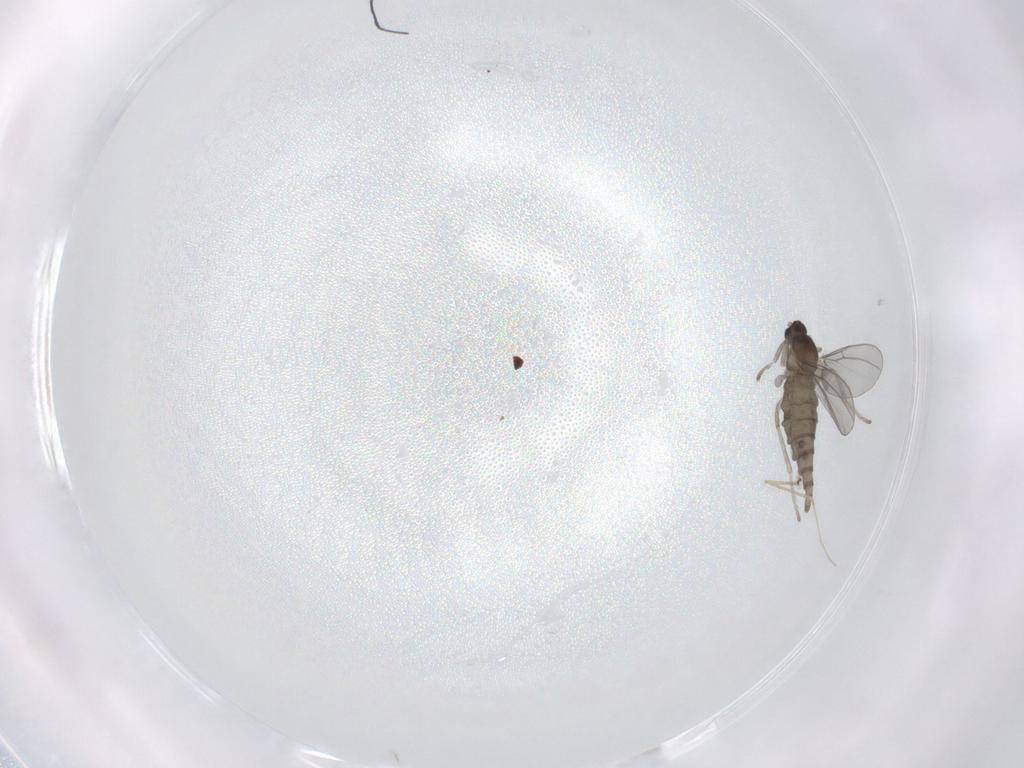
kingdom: Animalia
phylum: Arthropoda
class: Insecta
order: Diptera
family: Cecidomyiidae
